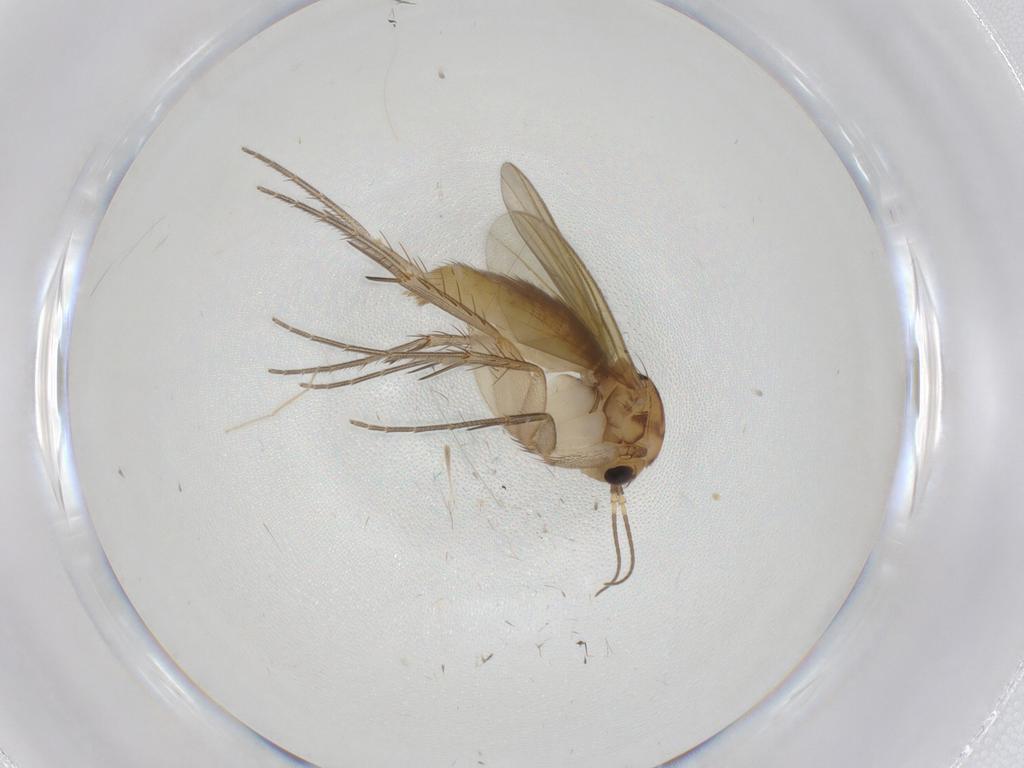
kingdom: Animalia
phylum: Arthropoda
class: Insecta
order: Diptera
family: Mycetophilidae
